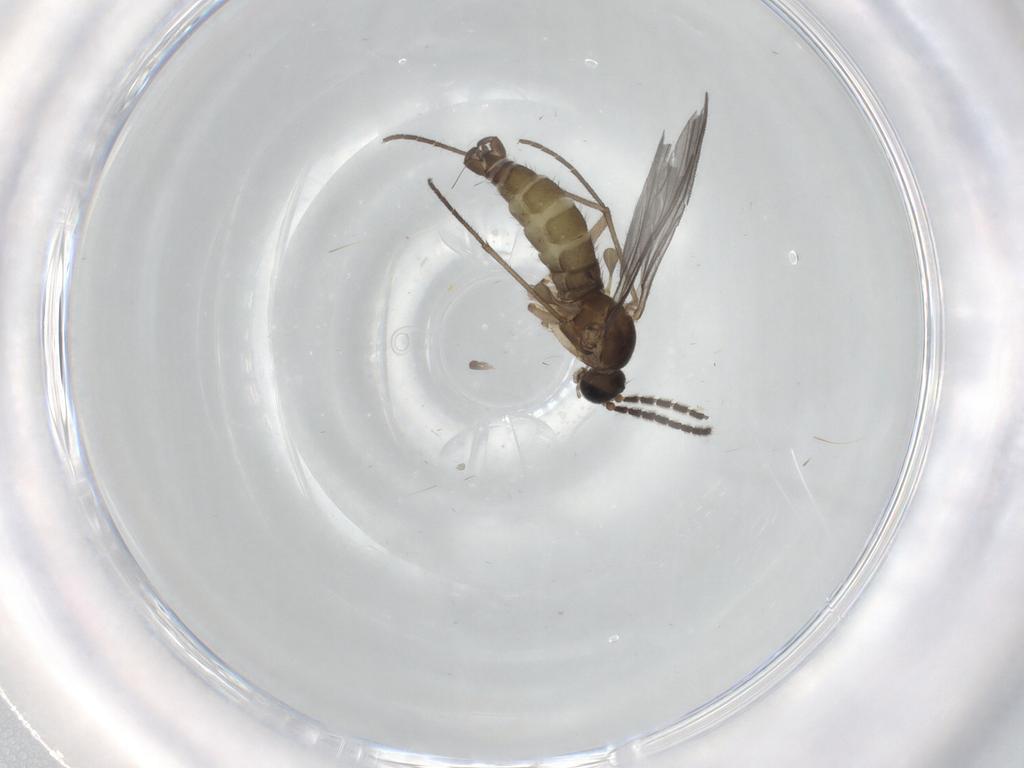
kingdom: Animalia
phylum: Arthropoda
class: Insecta
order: Diptera
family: Sciaridae
